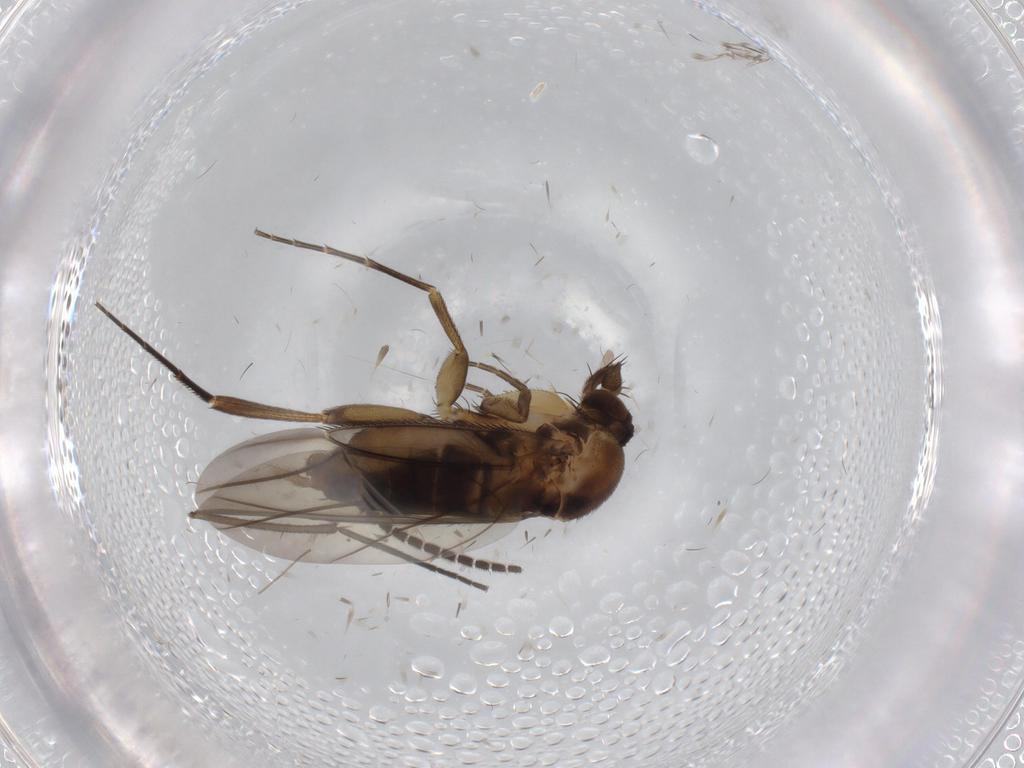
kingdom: Animalia
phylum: Arthropoda
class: Insecta
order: Diptera
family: Phoridae
